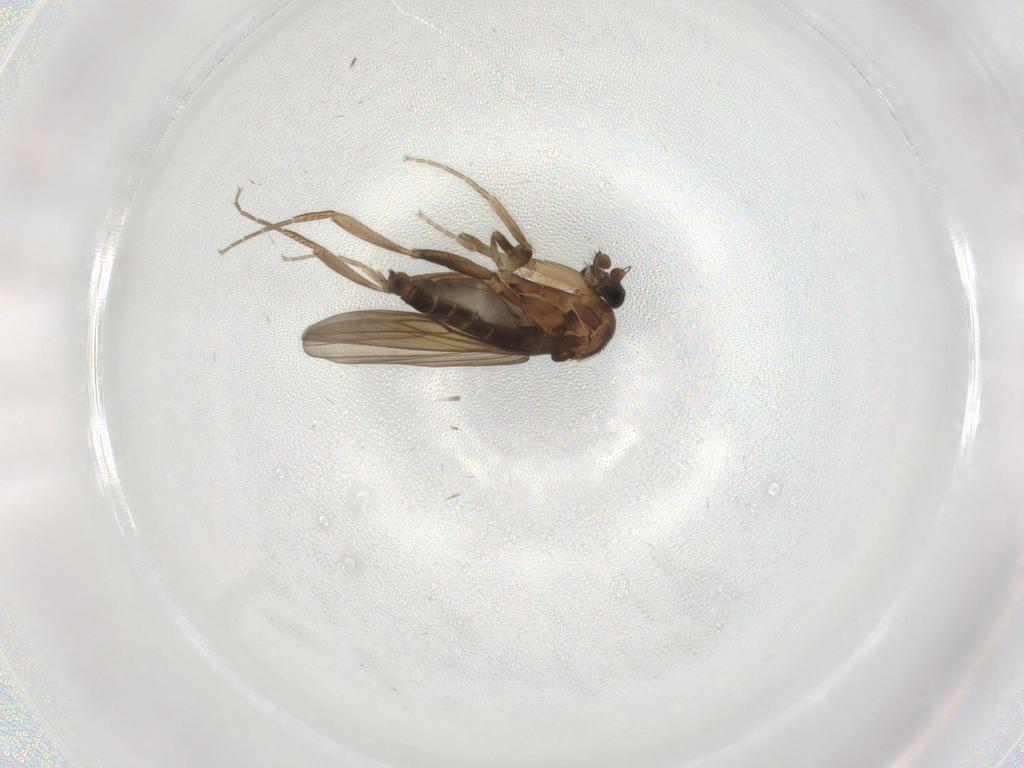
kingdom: Animalia
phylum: Arthropoda
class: Insecta
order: Diptera
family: Phoridae
